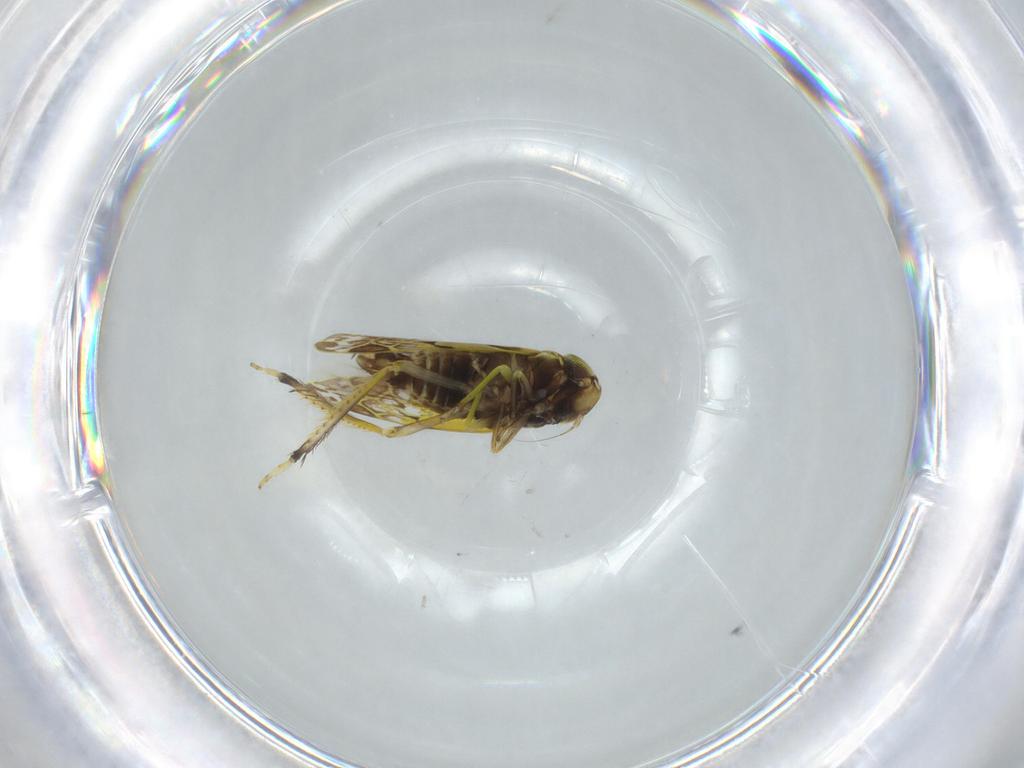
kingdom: Animalia
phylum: Arthropoda
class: Insecta
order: Hemiptera
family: Cicadellidae
